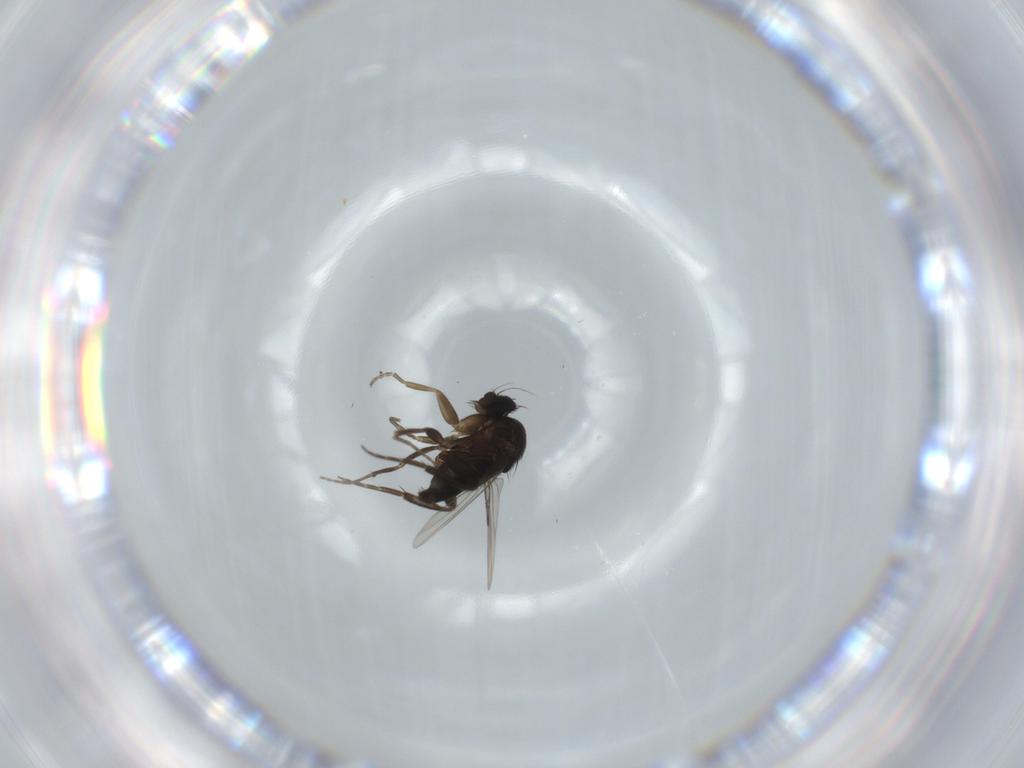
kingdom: Animalia
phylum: Arthropoda
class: Insecta
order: Diptera
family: Phoridae
